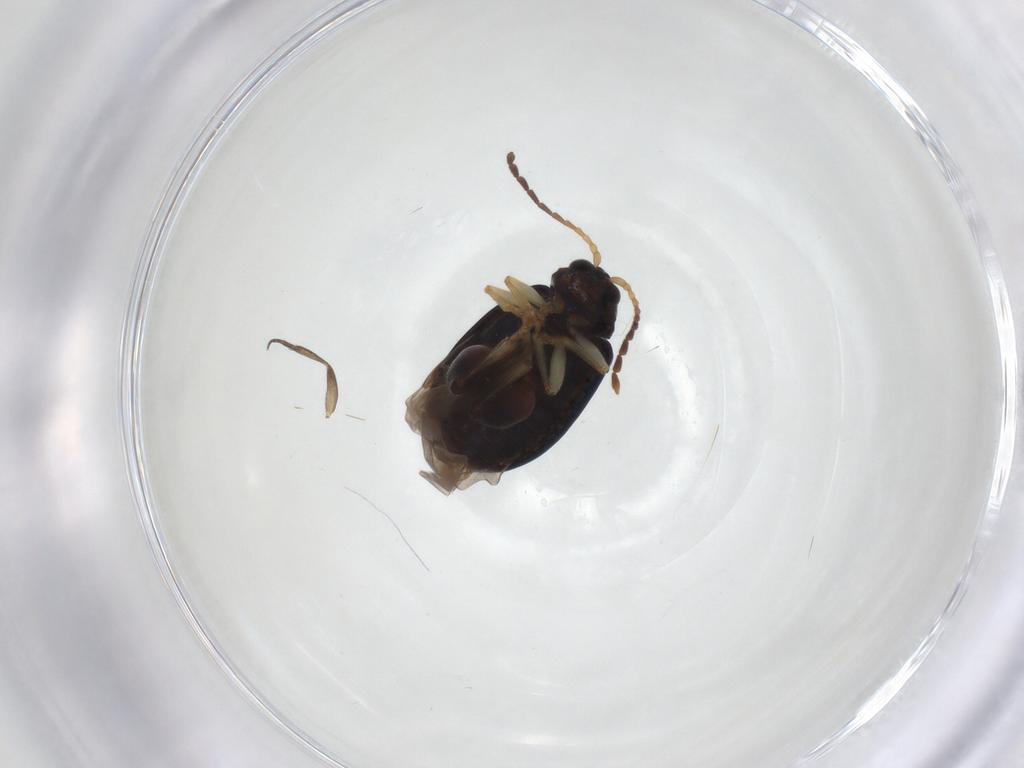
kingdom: Animalia
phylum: Arthropoda
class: Insecta
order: Coleoptera
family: Chrysomelidae
